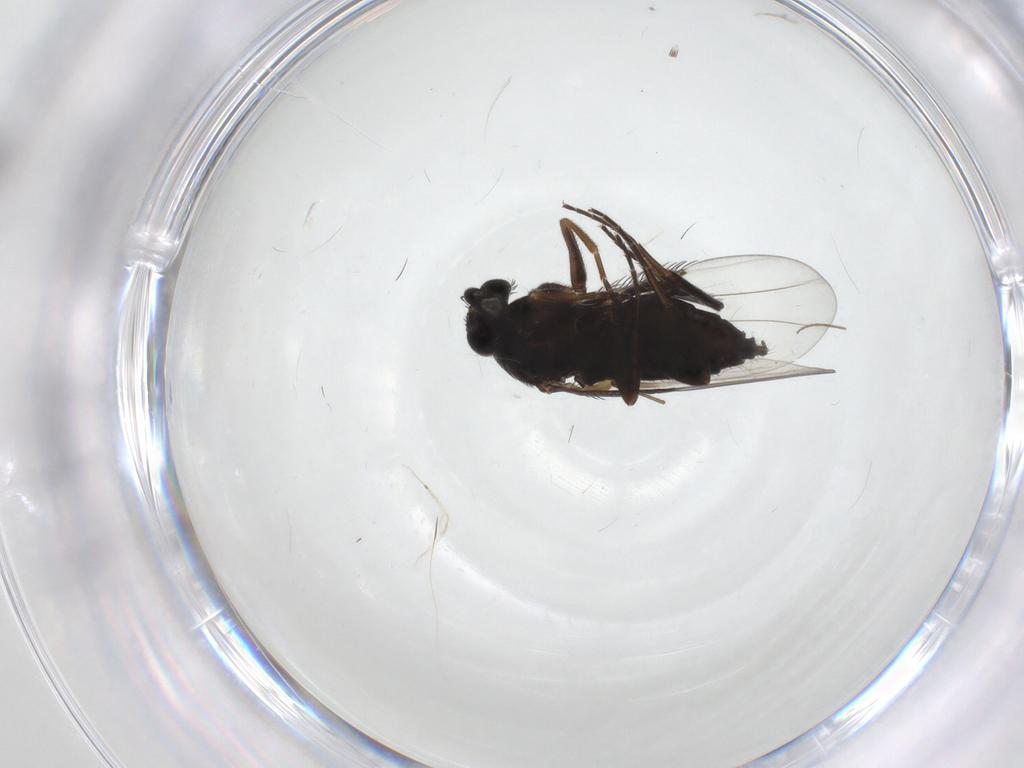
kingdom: Animalia
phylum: Arthropoda
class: Insecta
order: Diptera
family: Phoridae
